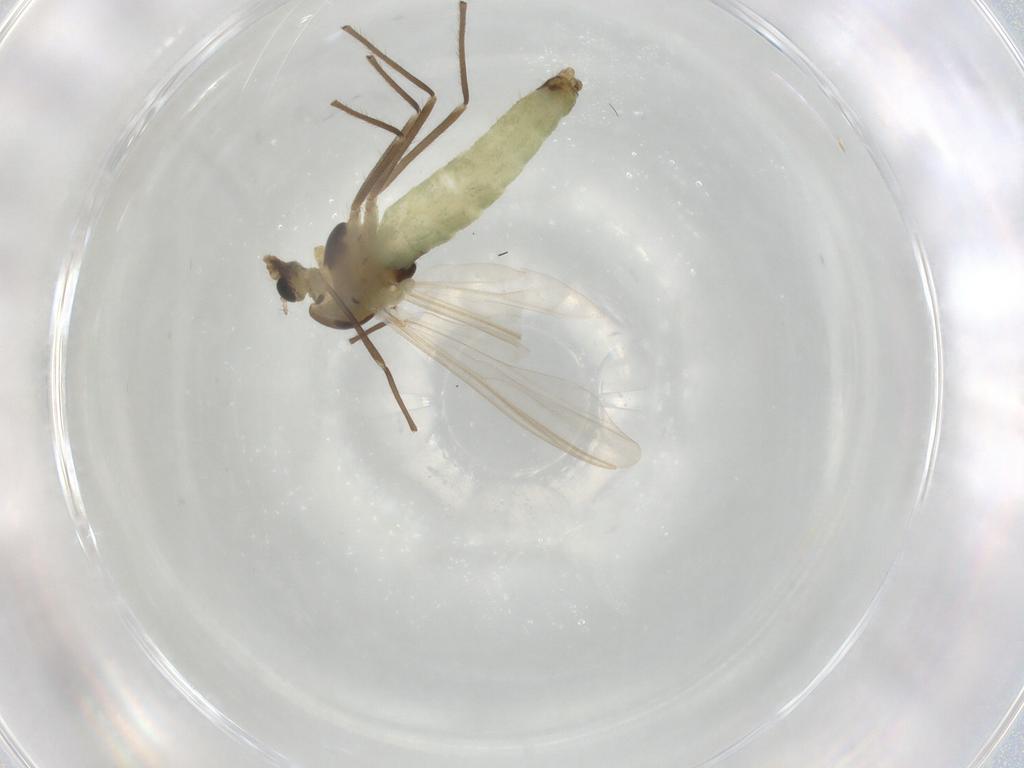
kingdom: Animalia
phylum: Arthropoda
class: Insecta
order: Diptera
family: Chironomidae
